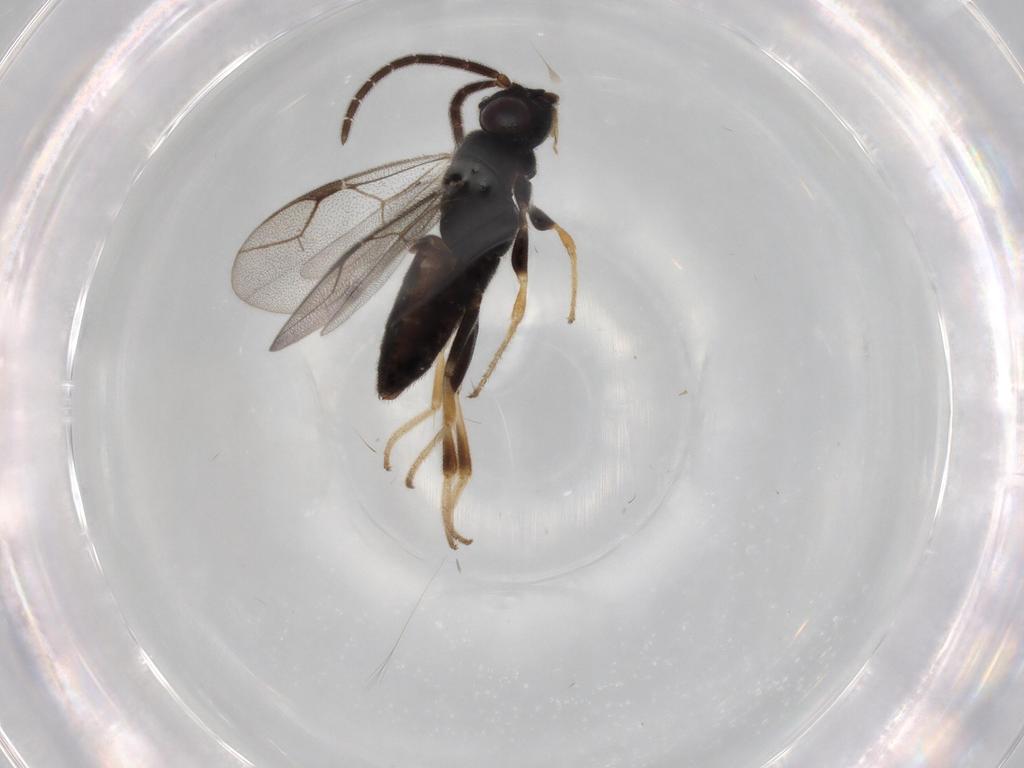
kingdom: Animalia
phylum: Arthropoda
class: Insecta
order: Hymenoptera
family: Dryinidae
